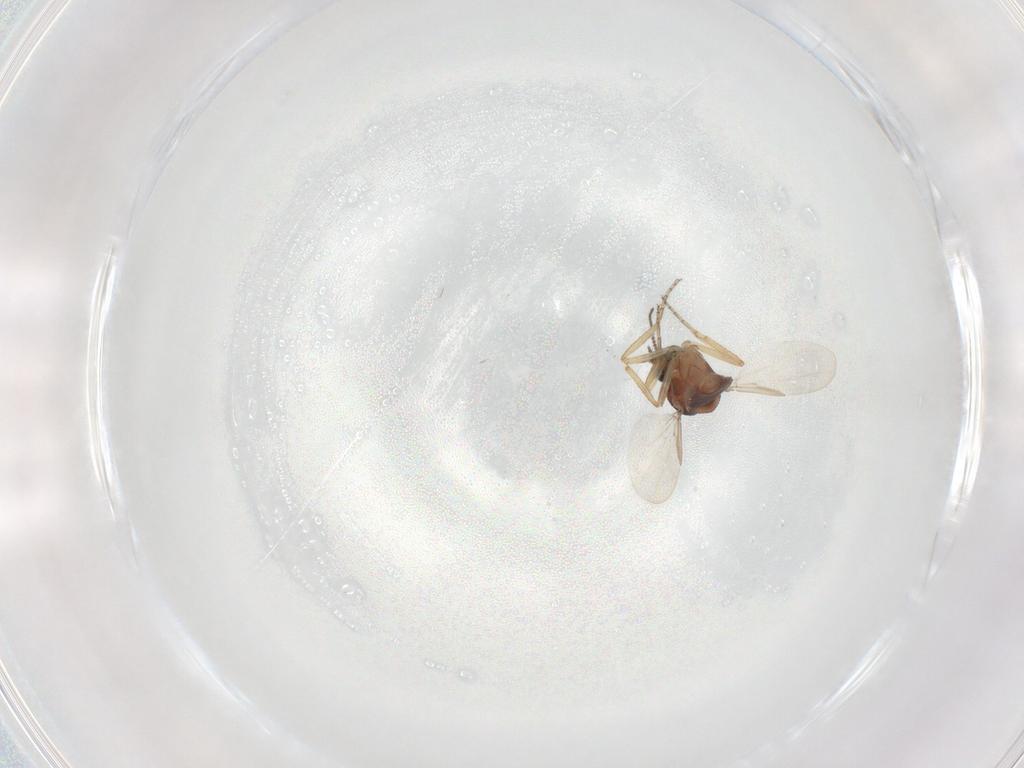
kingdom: Animalia
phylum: Arthropoda
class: Insecta
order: Diptera
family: Ceratopogonidae
